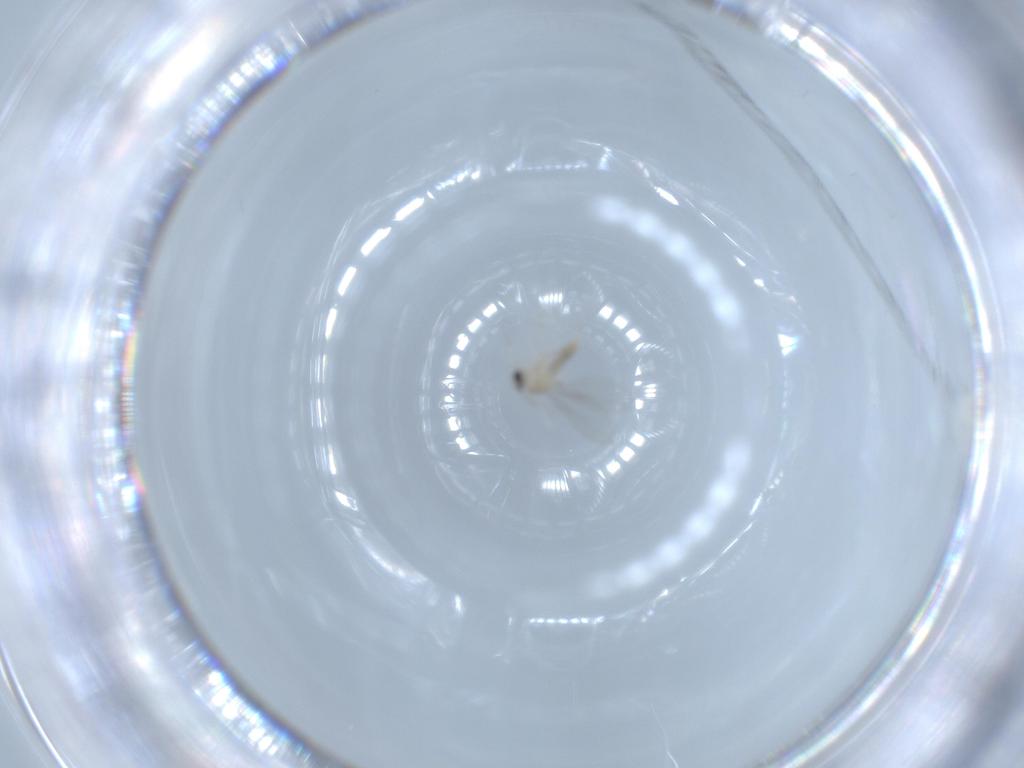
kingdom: Animalia
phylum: Arthropoda
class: Insecta
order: Diptera
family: Cecidomyiidae
